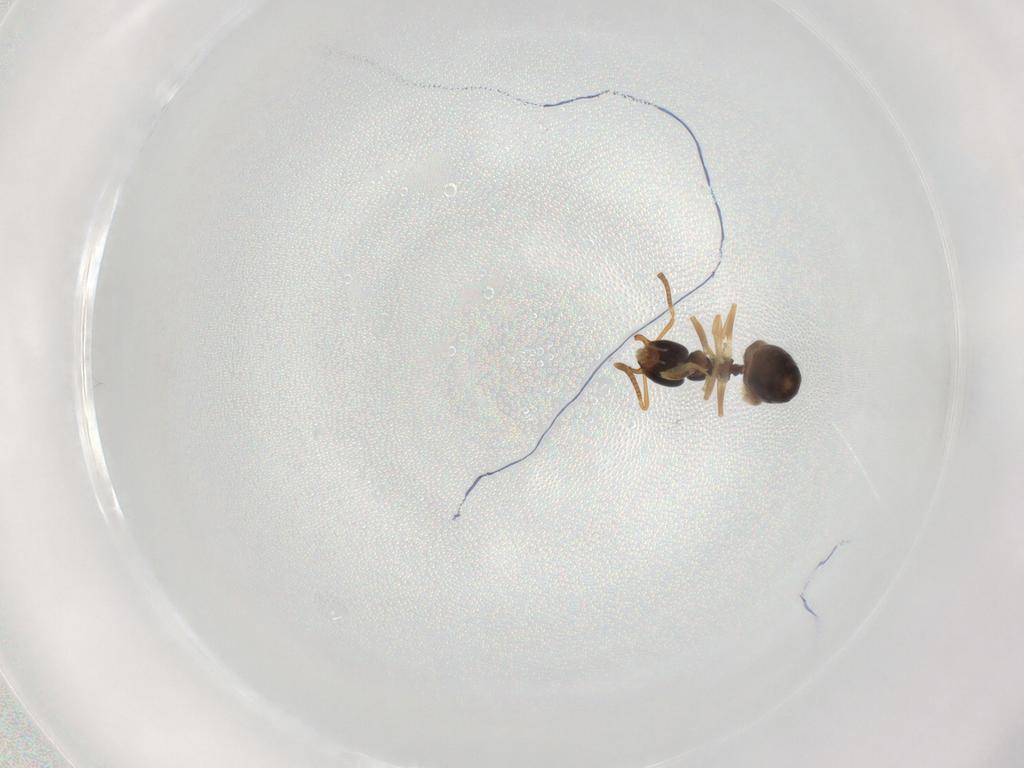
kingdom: Animalia
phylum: Arthropoda
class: Insecta
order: Hymenoptera
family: Formicidae
